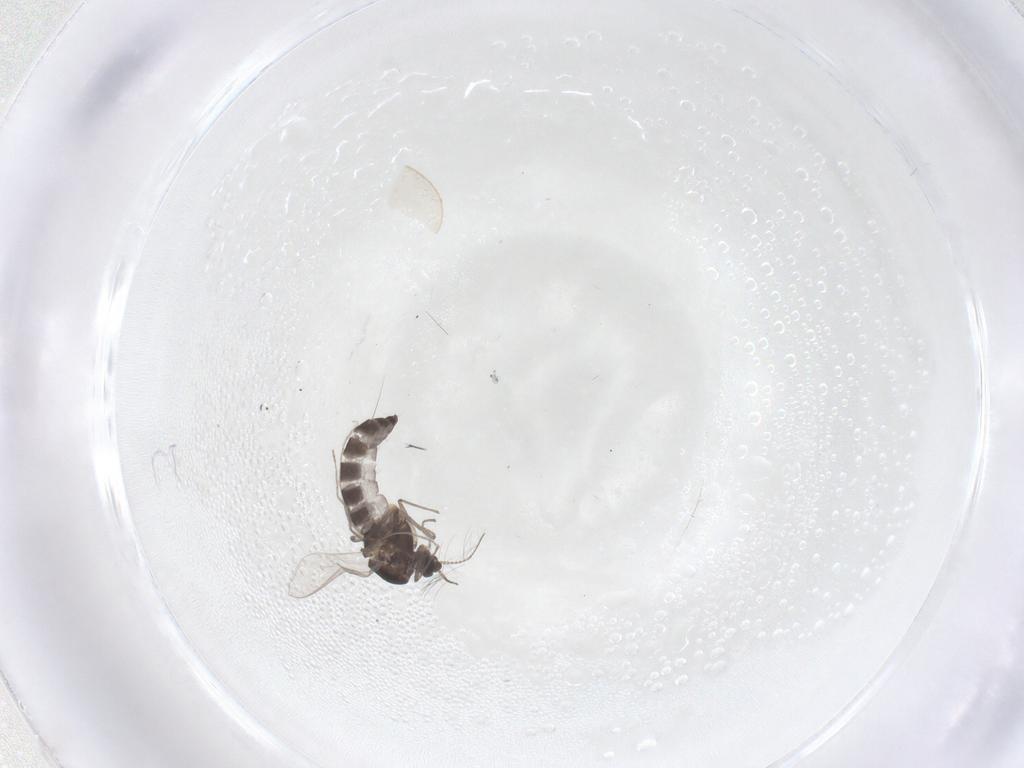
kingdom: Animalia
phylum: Arthropoda
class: Insecta
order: Diptera
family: Chironomidae
